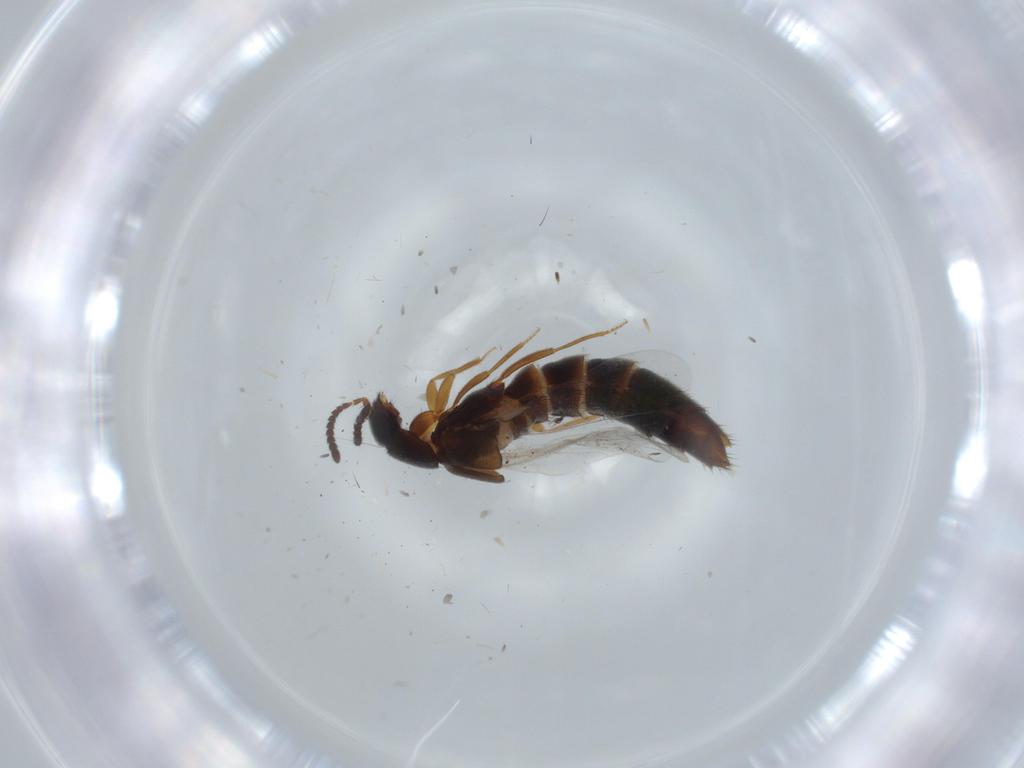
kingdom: Animalia
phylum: Arthropoda
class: Insecta
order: Coleoptera
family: Chrysomelidae
